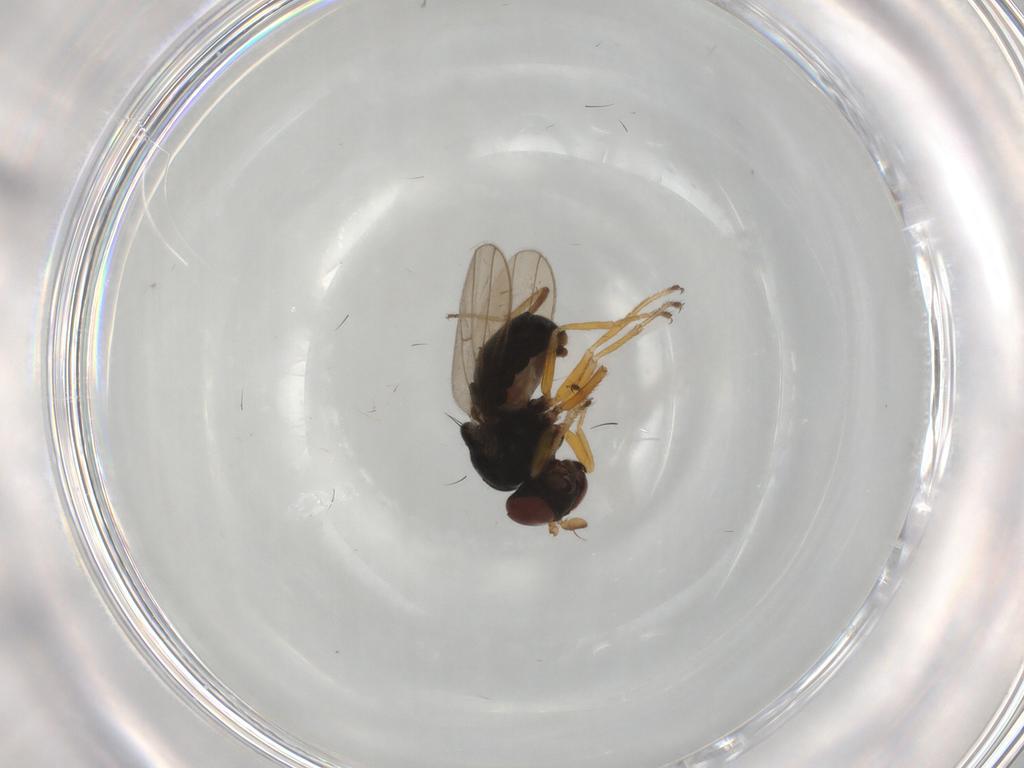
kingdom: Animalia
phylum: Arthropoda
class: Insecta
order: Diptera
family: Ephydridae
